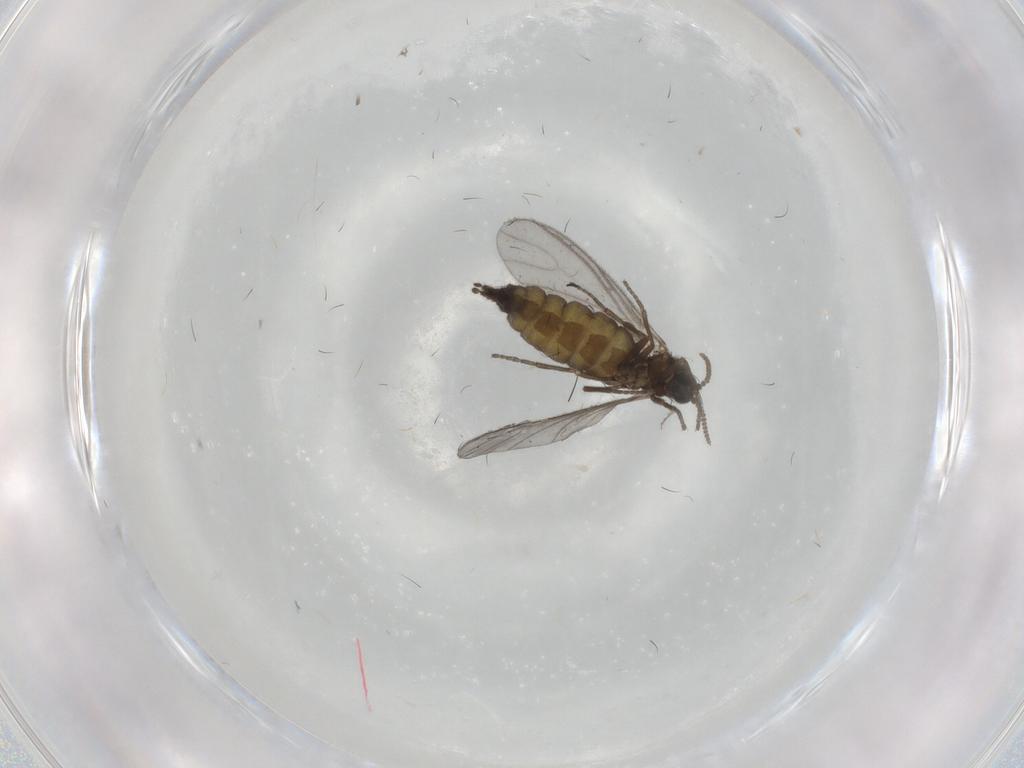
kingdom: Animalia
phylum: Arthropoda
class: Insecta
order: Diptera
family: Sciaridae
